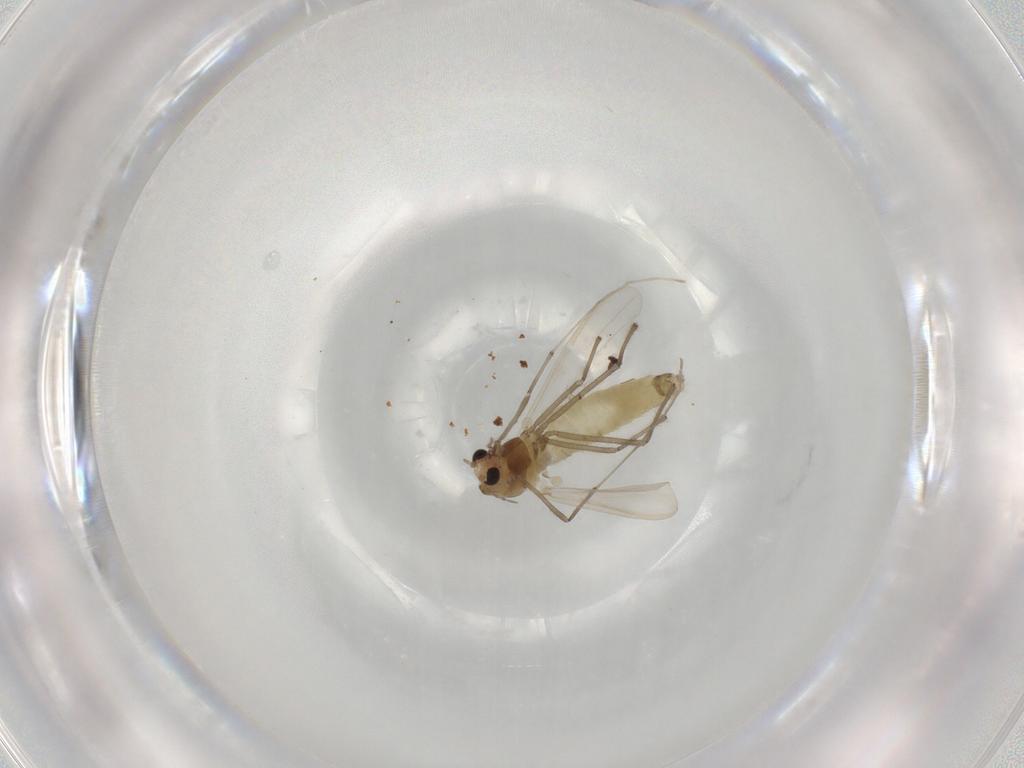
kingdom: Animalia
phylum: Arthropoda
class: Insecta
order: Diptera
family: Chironomidae
